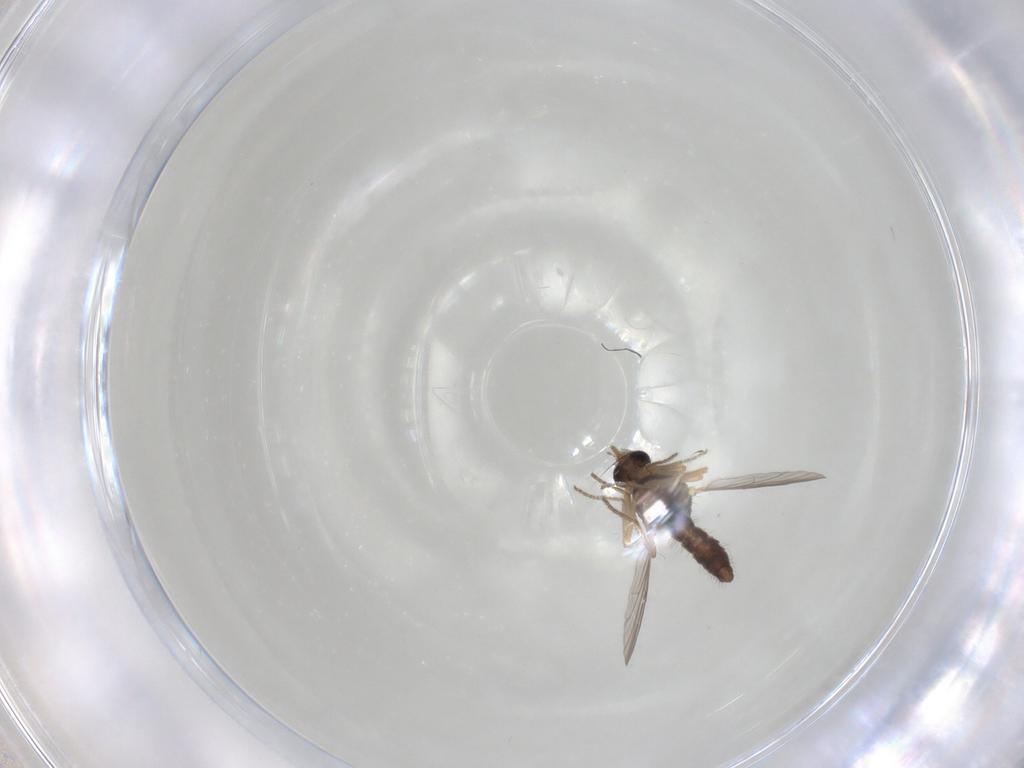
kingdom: Animalia
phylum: Arthropoda
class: Insecta
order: Diptera
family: Ceratopogonidae
